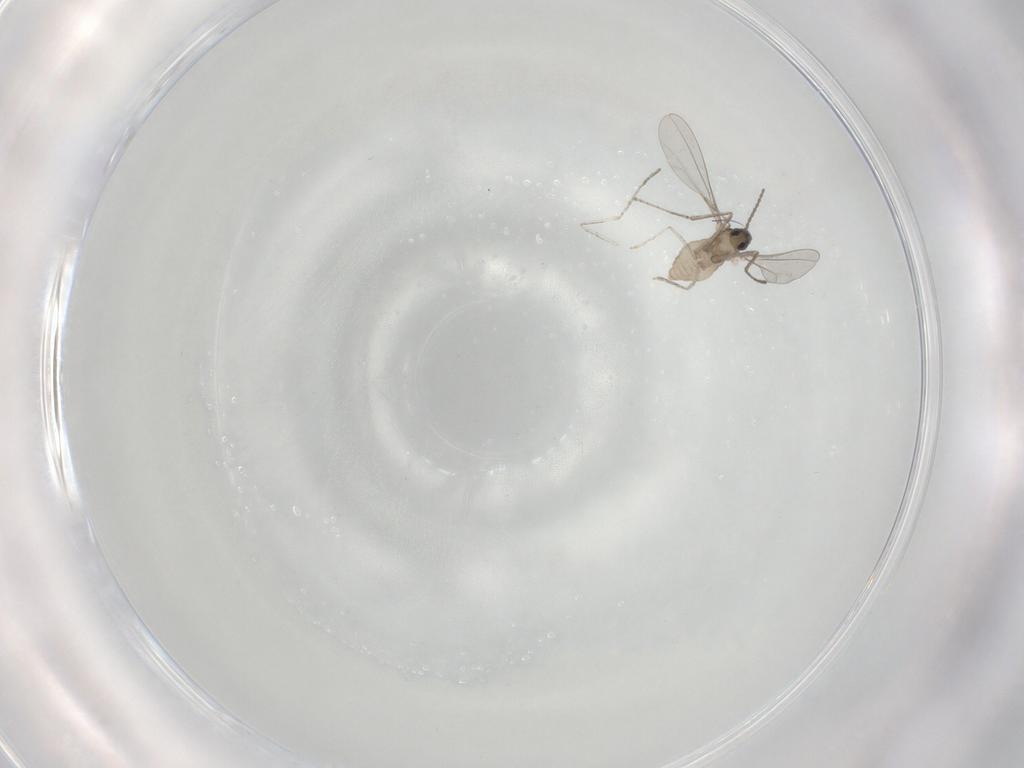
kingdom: Animalia
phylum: Arthropoda
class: Insecta
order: Diptera
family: Cecidomyiidae
